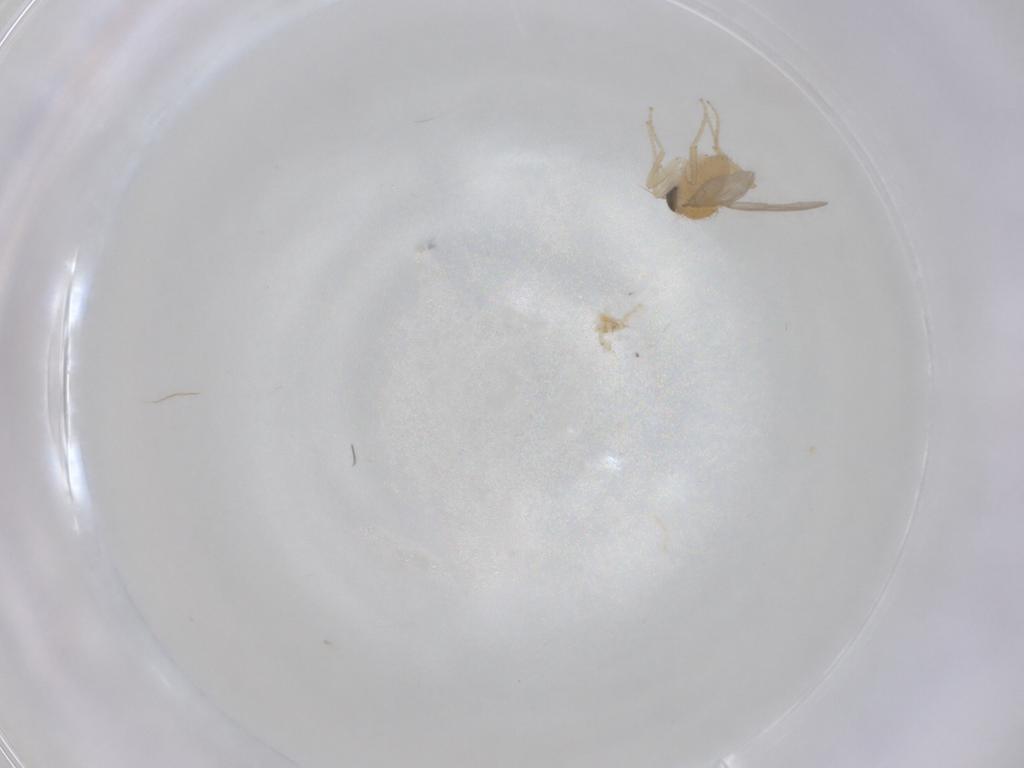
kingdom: Animalia
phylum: Arthropoda
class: Insecta
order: Diptera
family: Hybotidae
